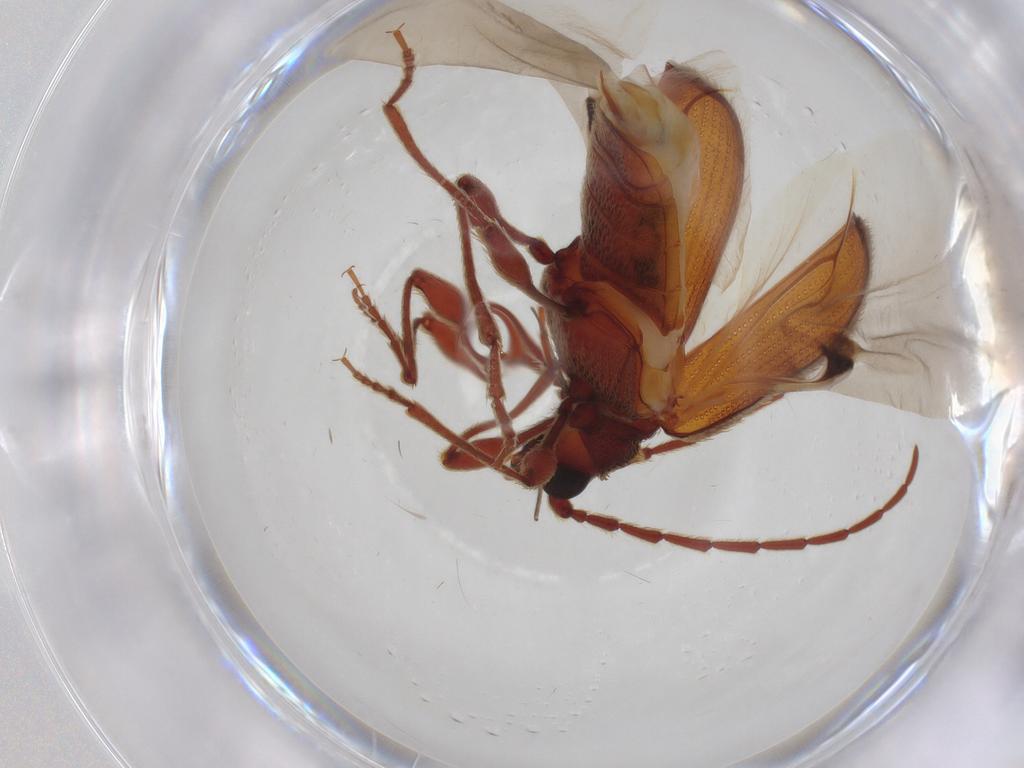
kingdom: Animalia
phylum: Arthropoda
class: Insecta
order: Coleoptera
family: Ptinidae
